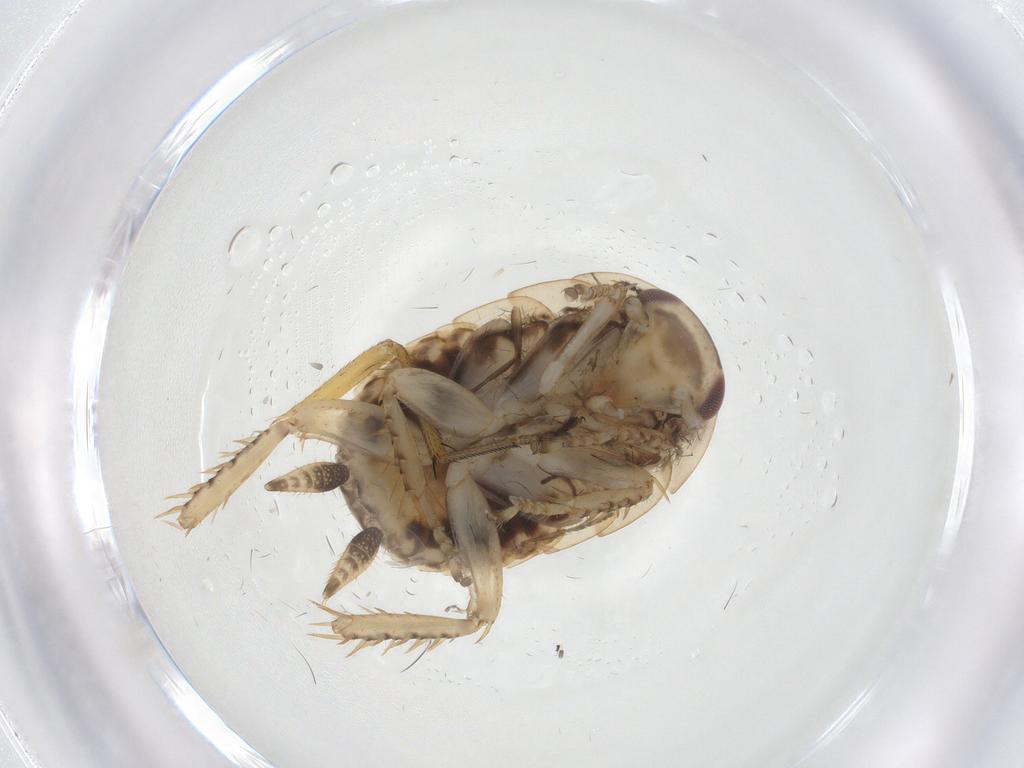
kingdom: Animalia
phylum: Arthropoda
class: Insecta
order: Blattodea
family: Ectobiidae
